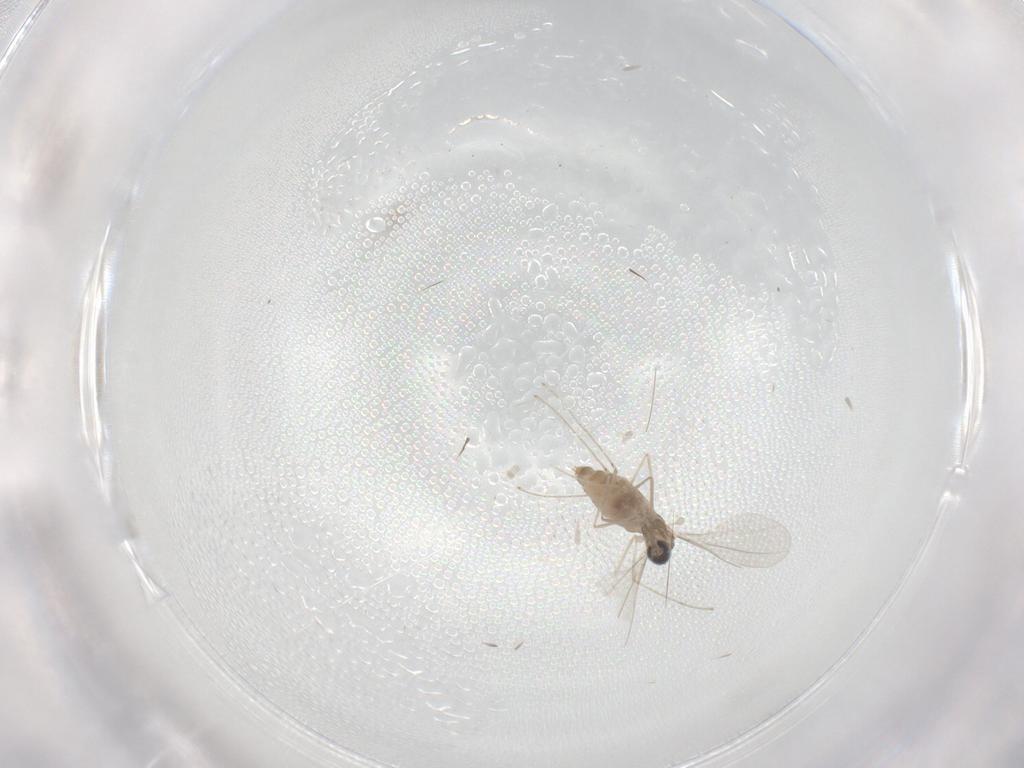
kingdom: Animalia
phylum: Arthropoda
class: Insecta
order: Diptera
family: Cecidomyiidae
